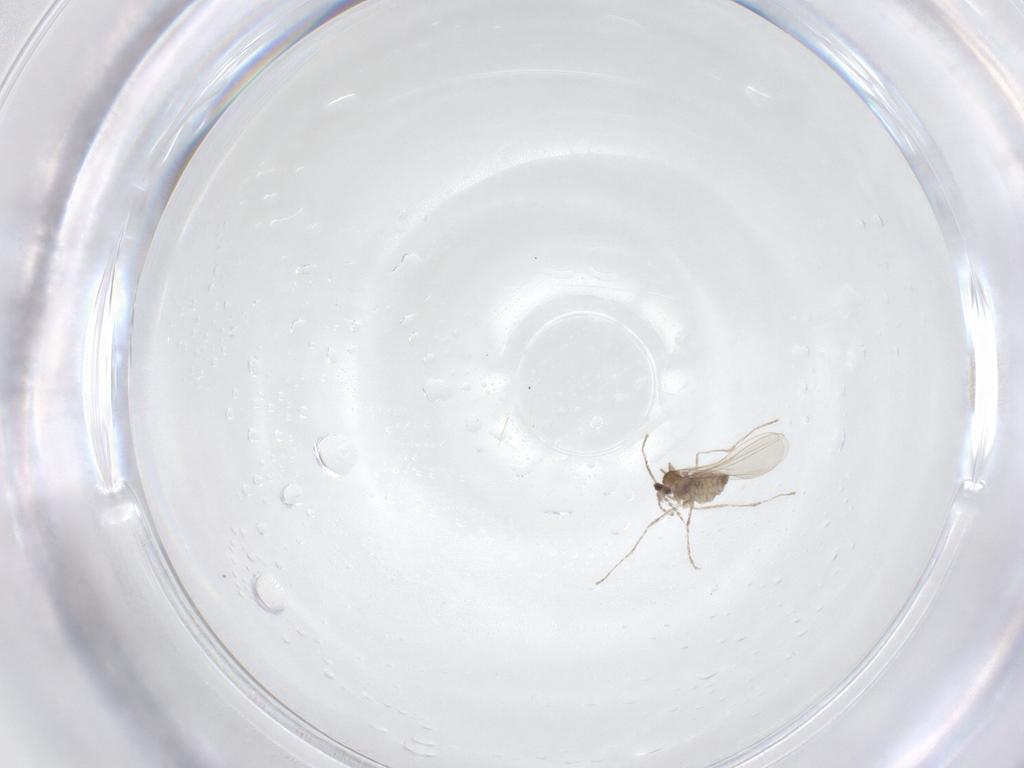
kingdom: Animalia
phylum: Arthropoda
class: Insecta
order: Diptera
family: Cecidomyiidae
